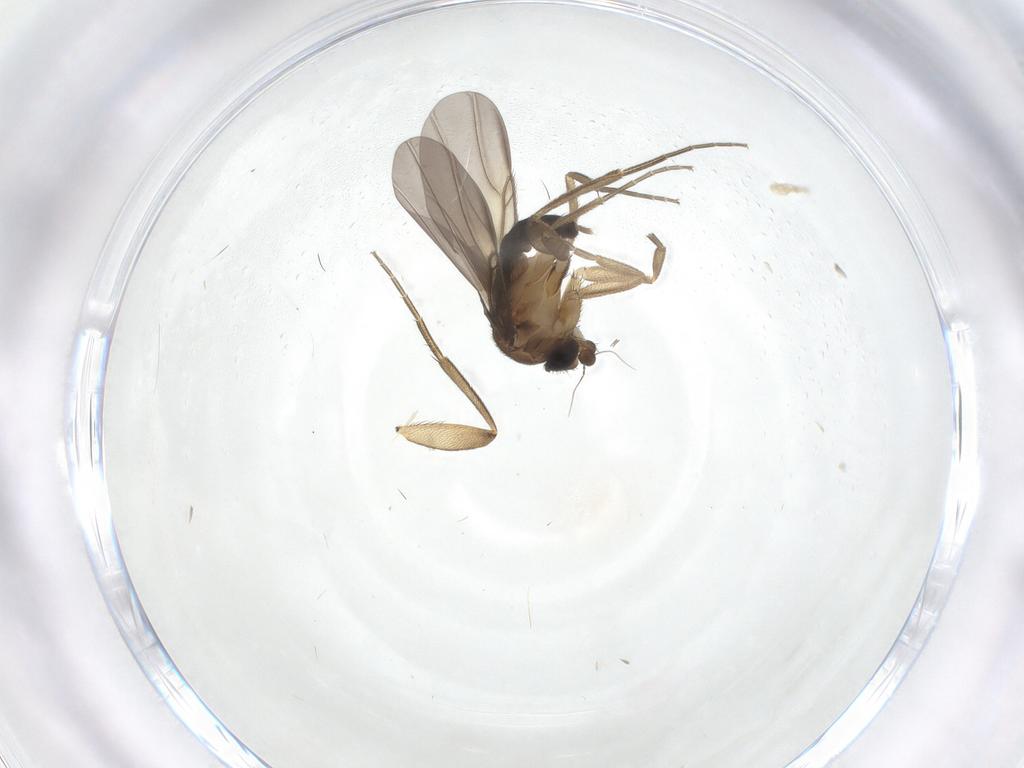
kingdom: Animalia
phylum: Arthropoda
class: Insecta
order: Diptera
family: Phoridae
